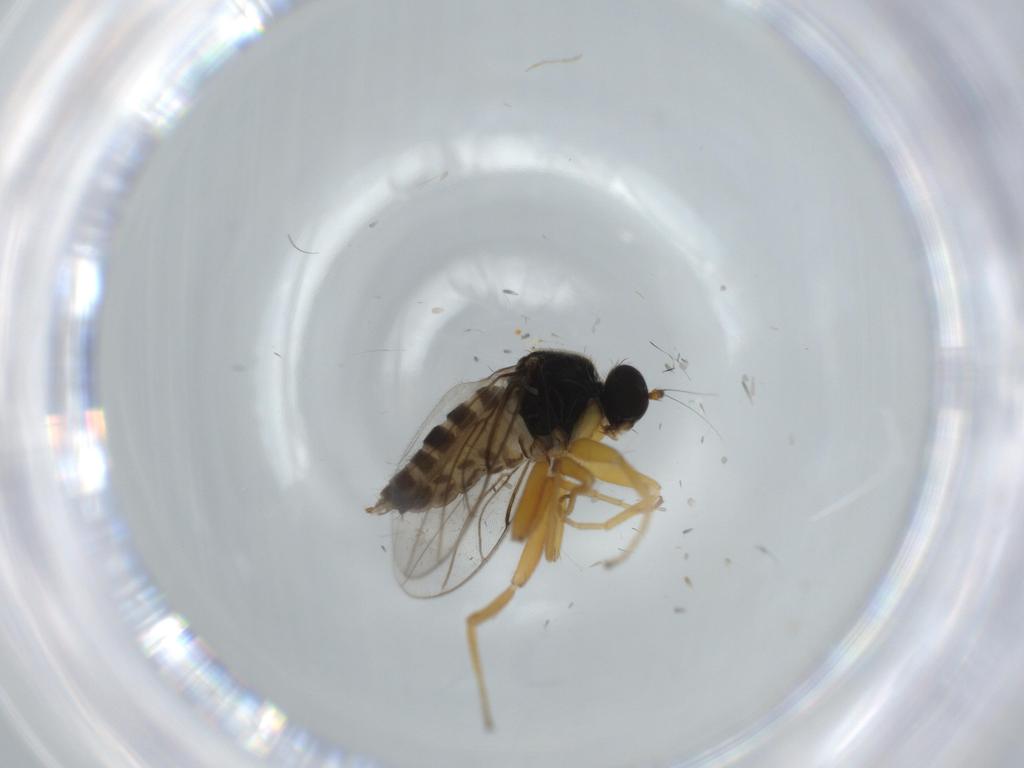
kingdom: Animalia
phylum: Arthropoda
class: Insecta
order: Diptera
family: Hybotidae
